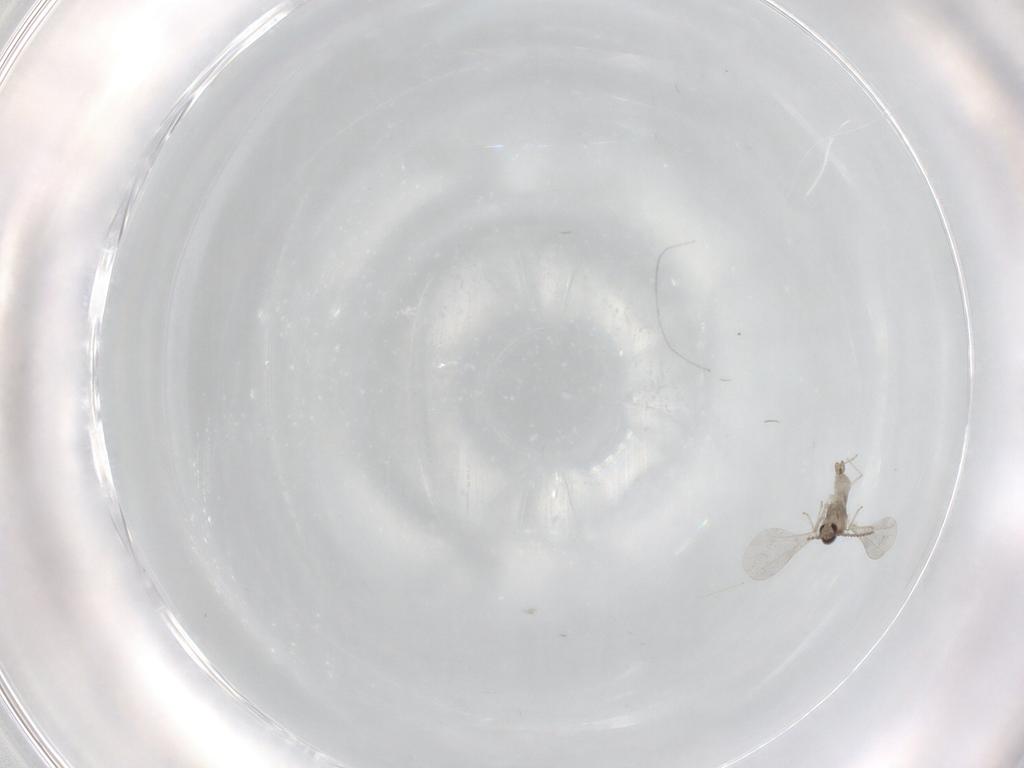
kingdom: Animalia
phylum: Arthropoda
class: Insecta
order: Diptera
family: Cecidomyiidae
